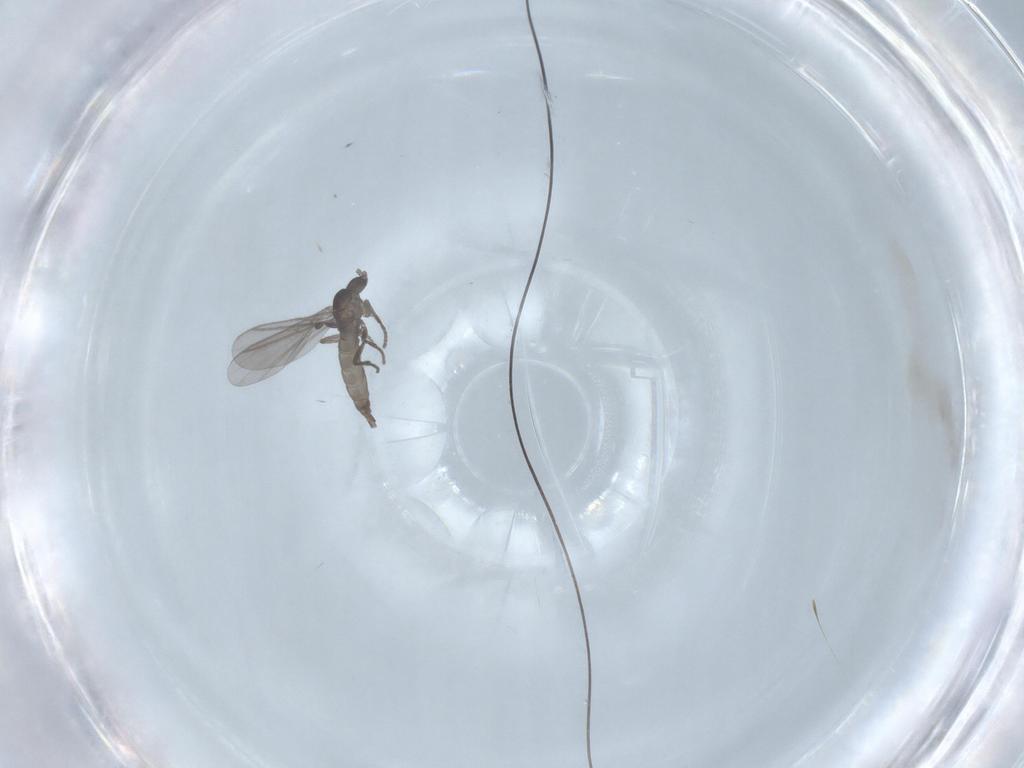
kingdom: Animalia
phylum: Arthropoda
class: Insecta
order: Diptera
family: Cecidomyiidae
